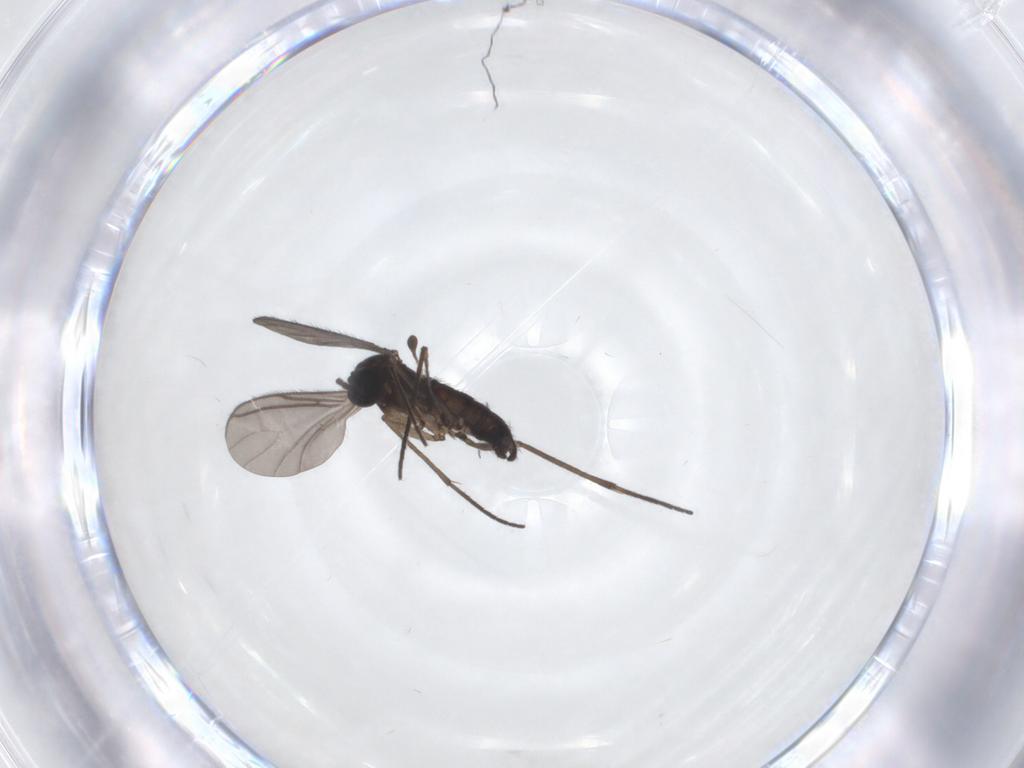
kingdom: Animalia
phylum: Arthropoda
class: Insecta
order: Diptera
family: Sciaridae
